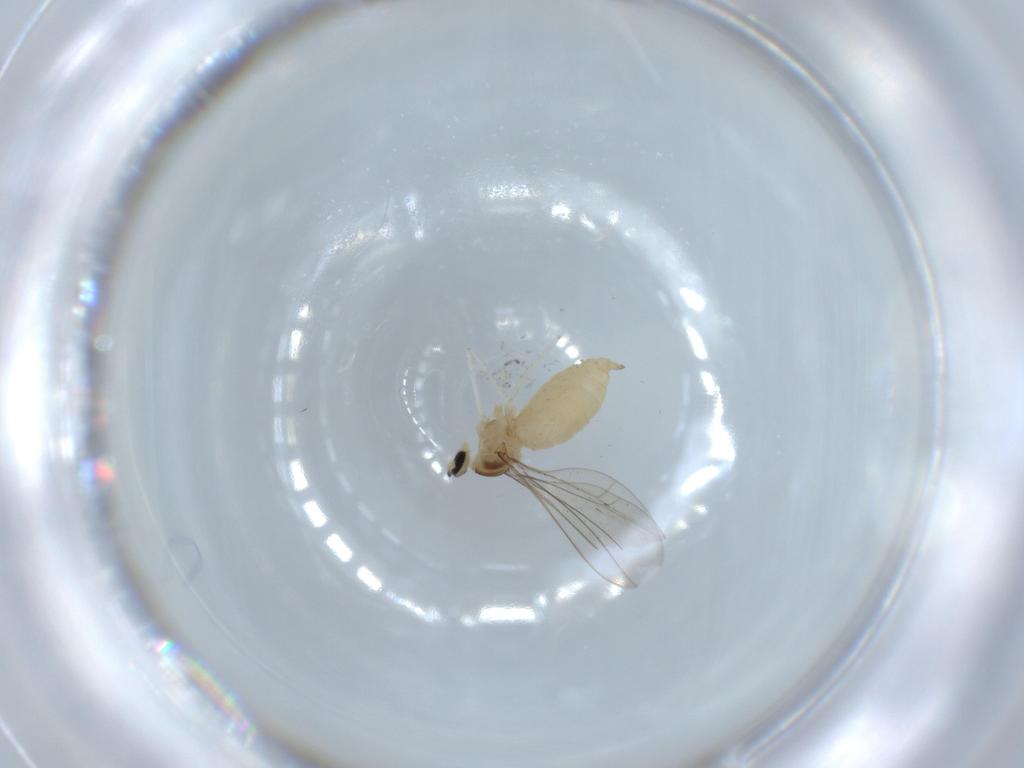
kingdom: Animalia
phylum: Arthropoda
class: Insecta
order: Diptera
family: Cecidomyiidae
